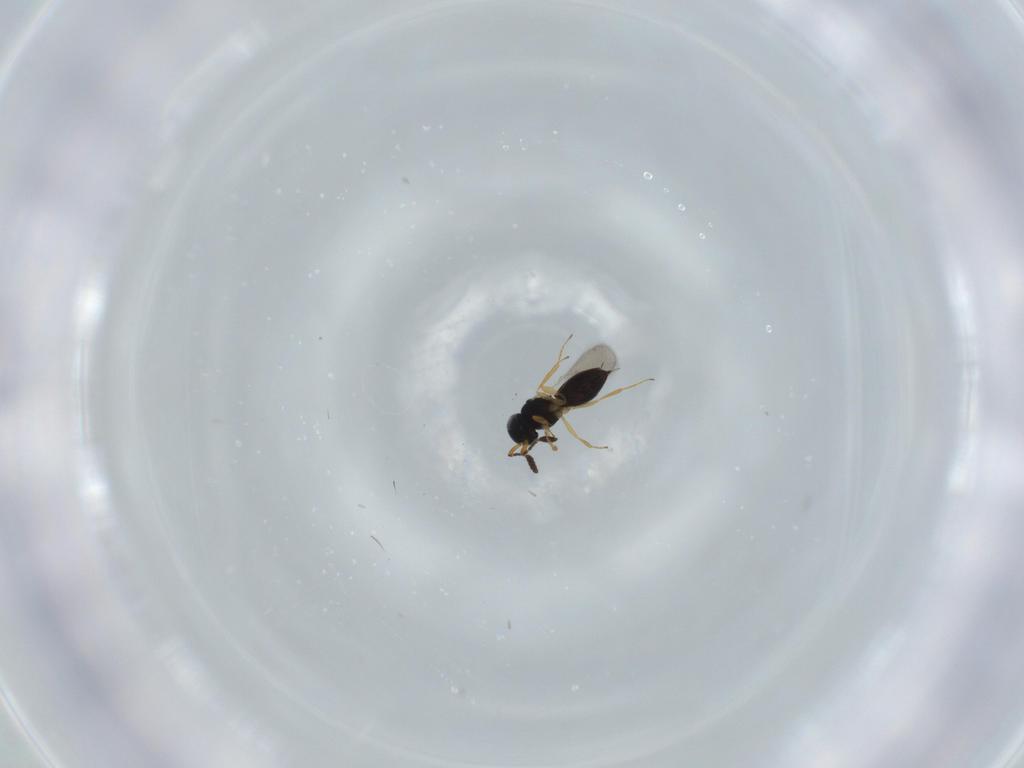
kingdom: Animalia
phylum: Arthropoda
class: Insecta
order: Hymenoptera
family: Scelionidae
